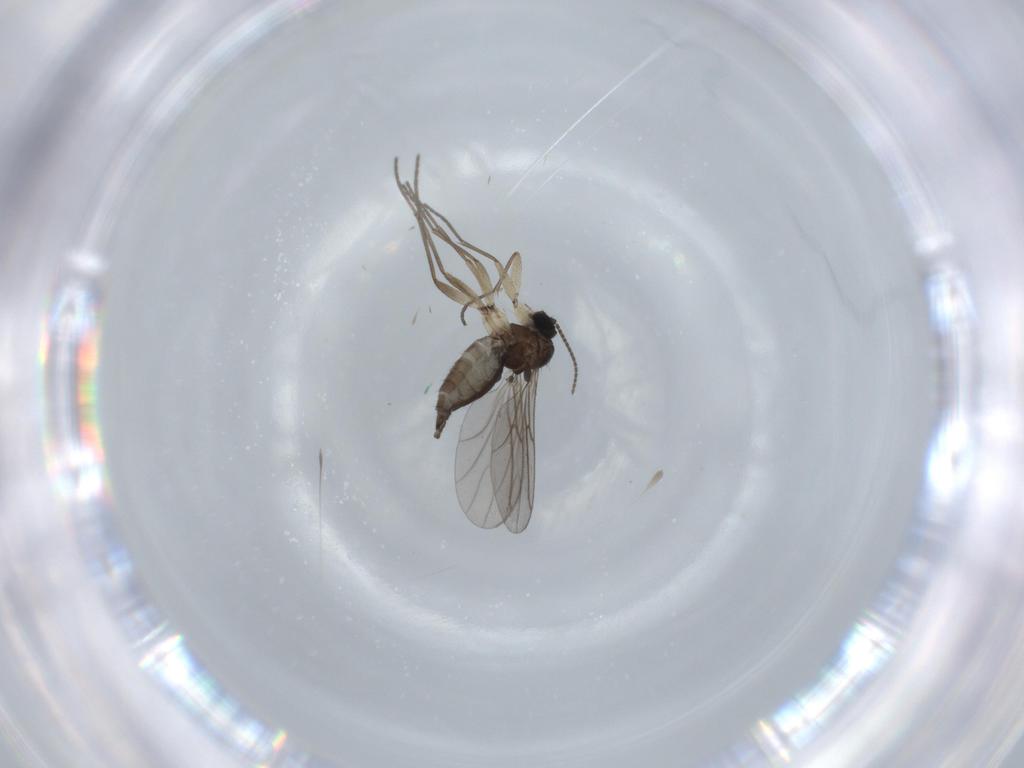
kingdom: Animalia
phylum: Arthropoda
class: Insecta
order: Diptera
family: Sciaridae
